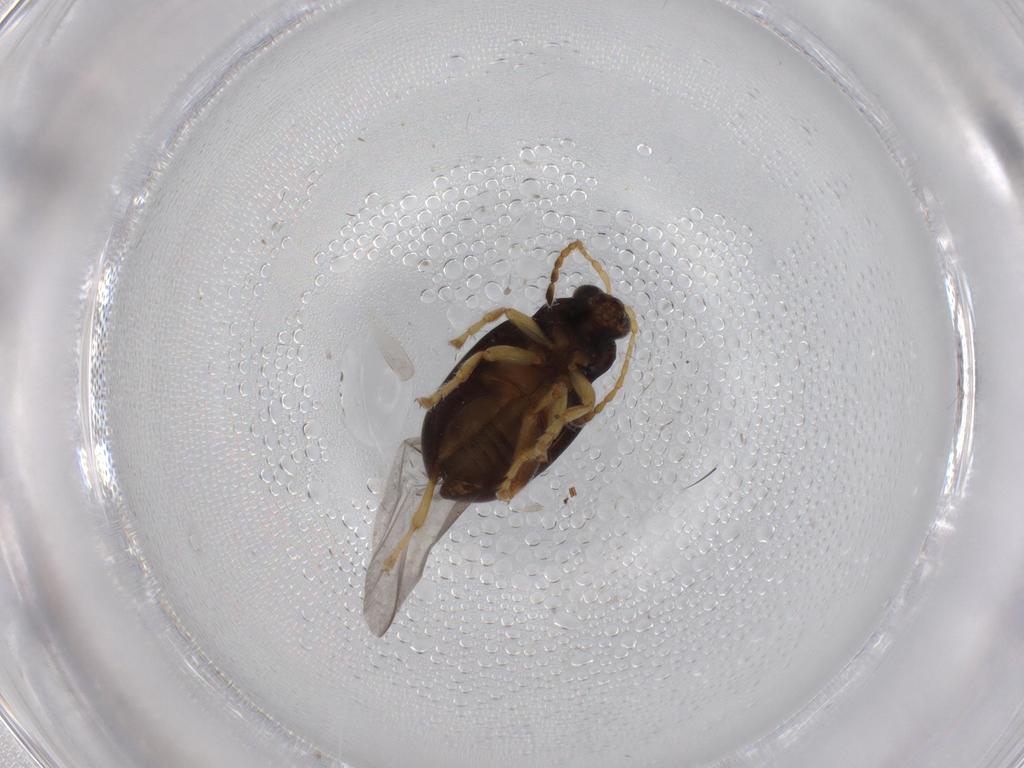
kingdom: Animalia
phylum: Arthropoda
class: Insecta
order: Coleoptera
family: Chrysomelidae
